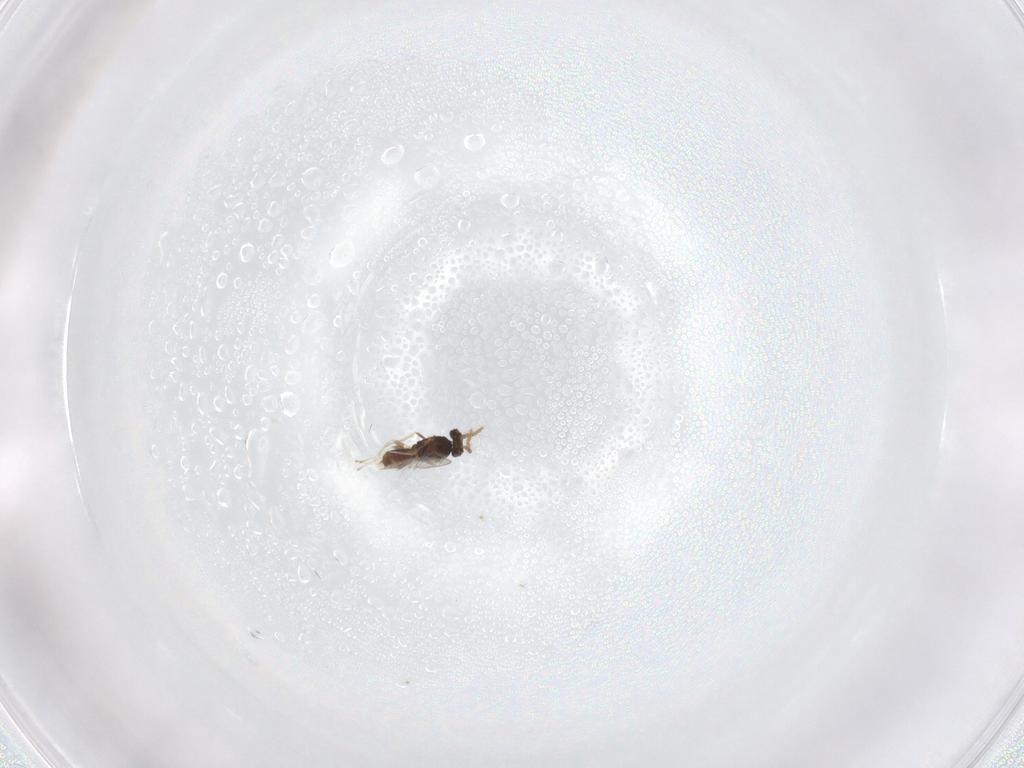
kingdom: Animalia
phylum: Arthropoda
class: Insecta
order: Hymenoptera
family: Eulophidae
